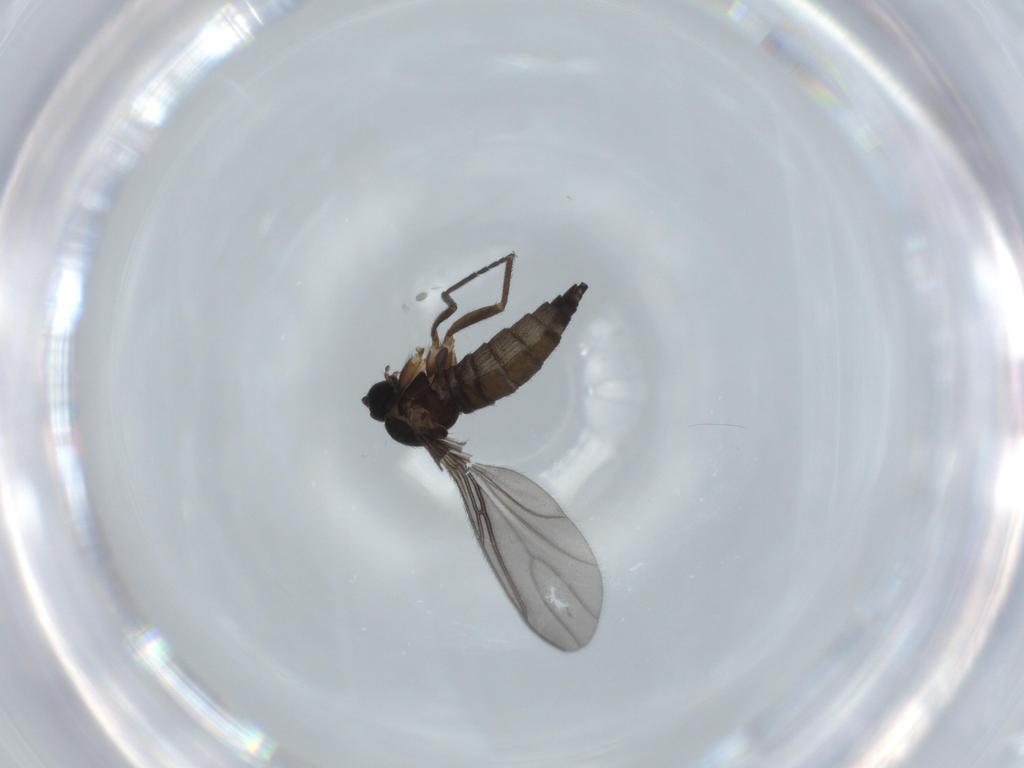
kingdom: Animalia
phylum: Arthropoda
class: Insecta
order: Diptera
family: Sciaridae
